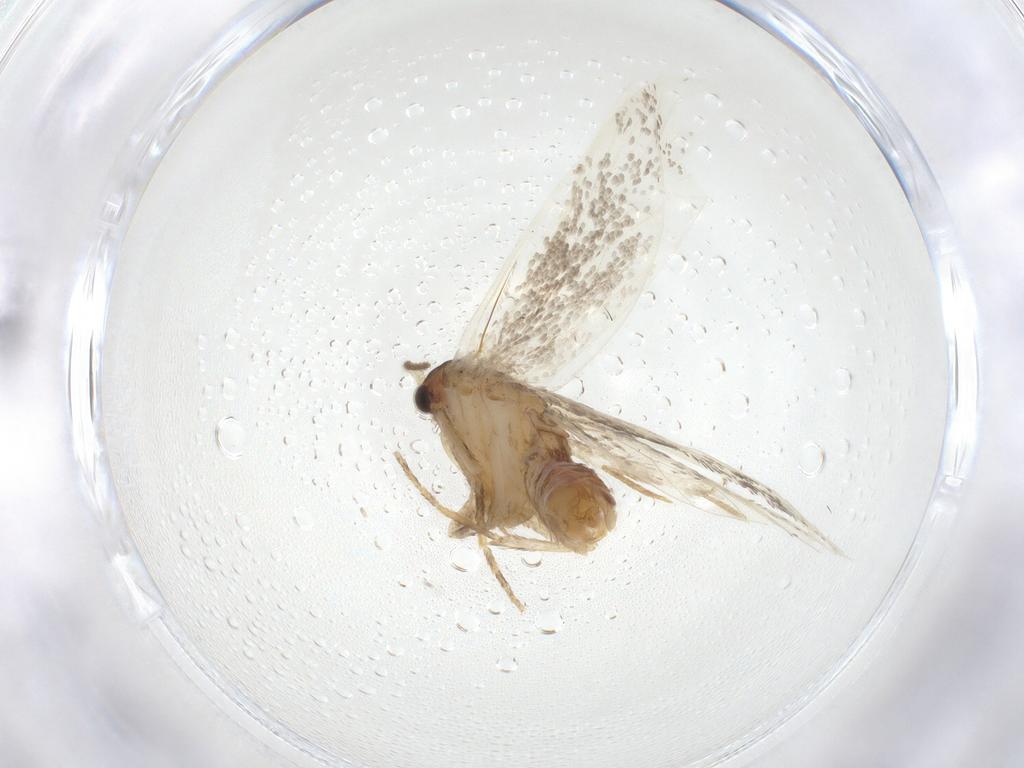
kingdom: Animalia
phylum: Arthropoda
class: Insecta
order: Lepidoptera
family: Dryadaulidae
